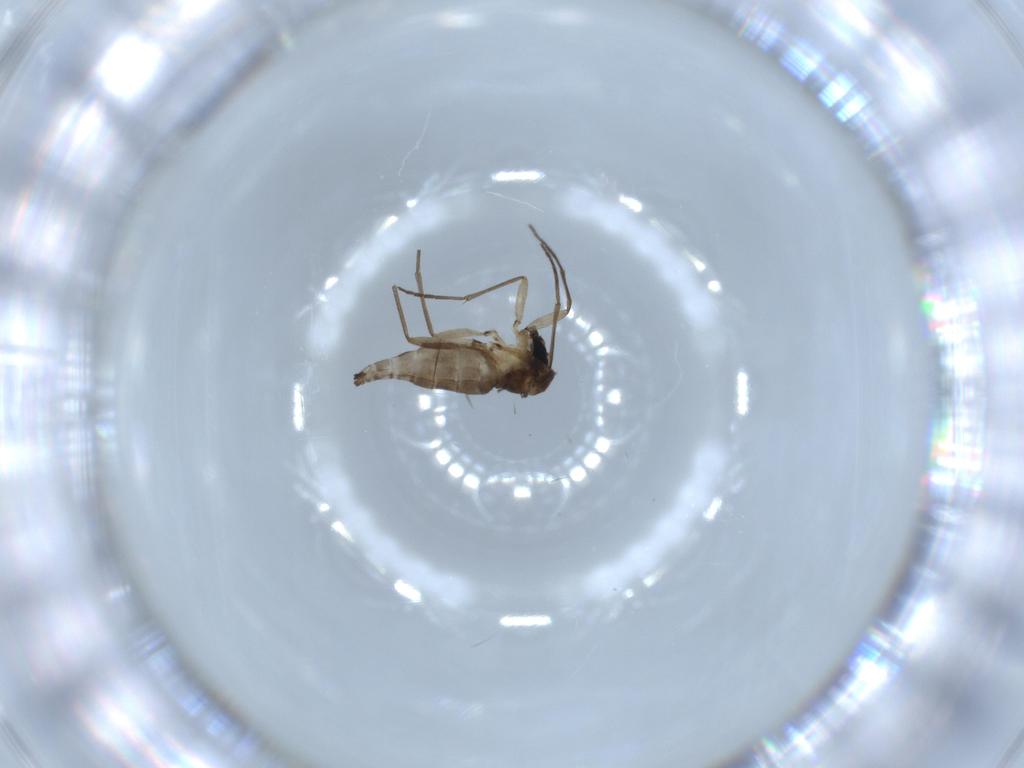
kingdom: Animalia
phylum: Arthropoda
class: Insecta
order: Diptera
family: Sciaridae
